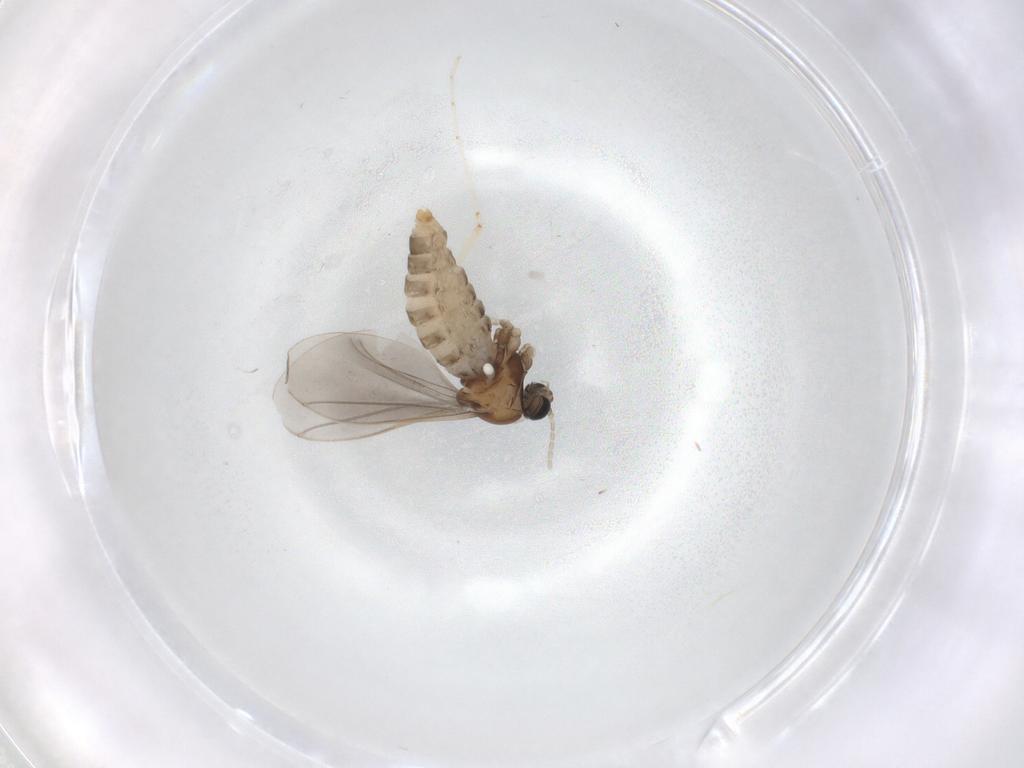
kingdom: Animalia
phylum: Arthropoda
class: Insecta
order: Diptera
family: Cecidomyiidae
